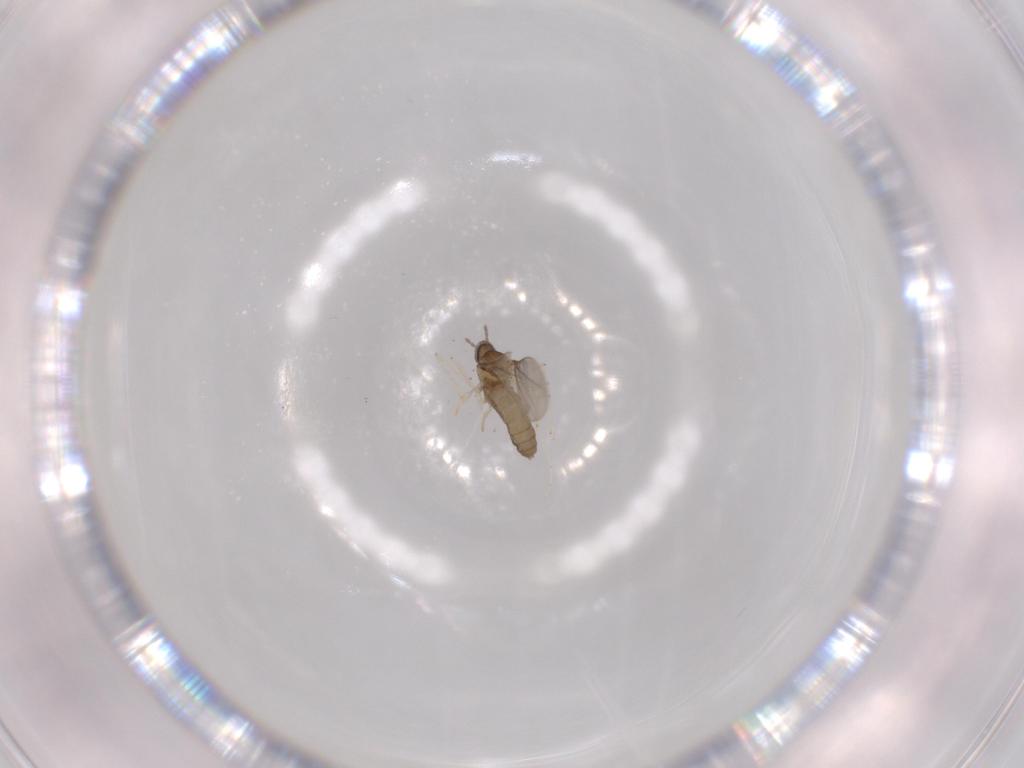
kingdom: Animalia
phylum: Arthropoda
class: Insecta
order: Diptera
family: Cecidomyiidae
